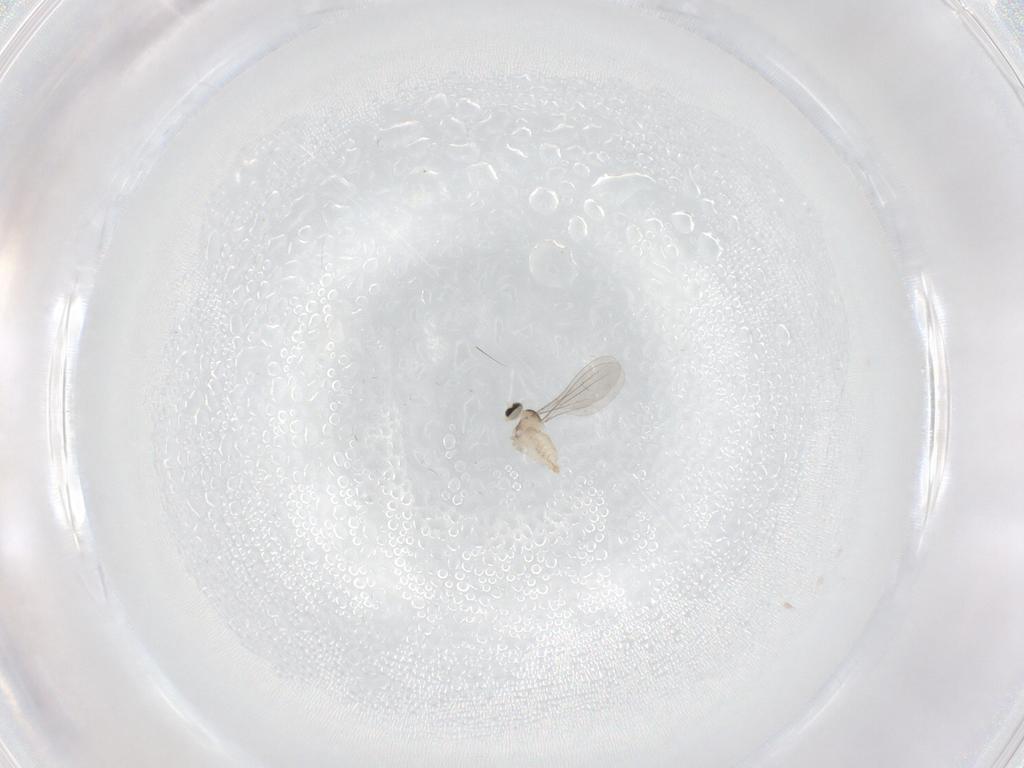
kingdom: Animalia
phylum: Arthropoda
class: Insecta
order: Diptera
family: Cecidomyiidae
